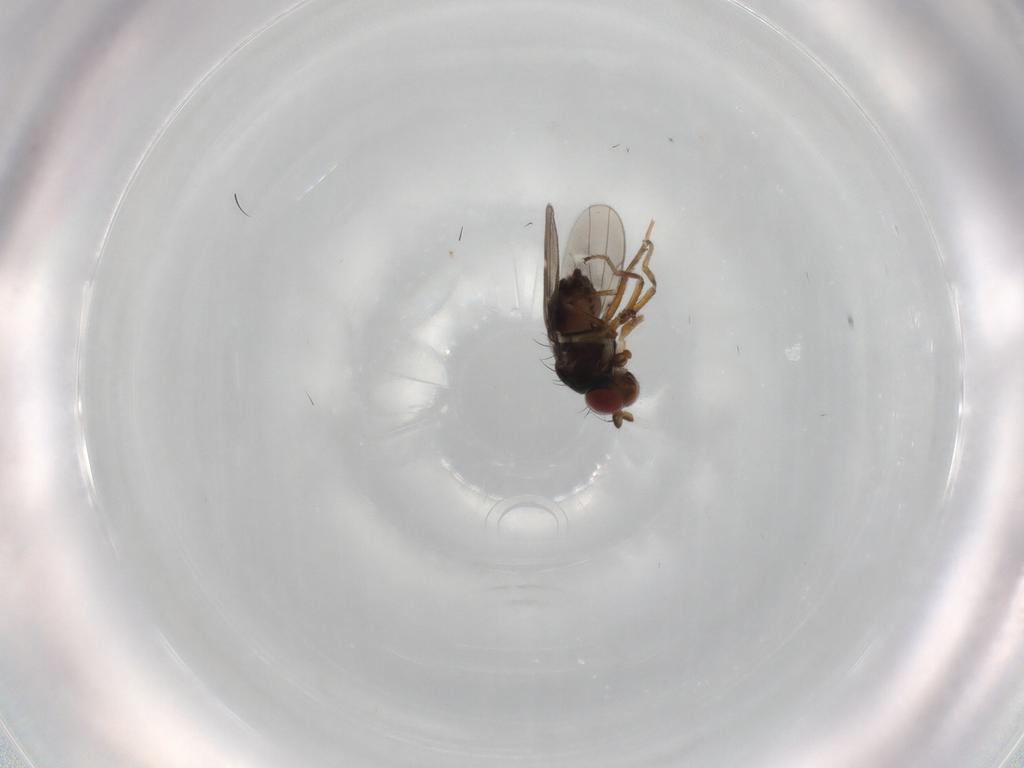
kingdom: Animalia
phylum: Arthropoda
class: Insecta
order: Diptera
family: Ephydridae
